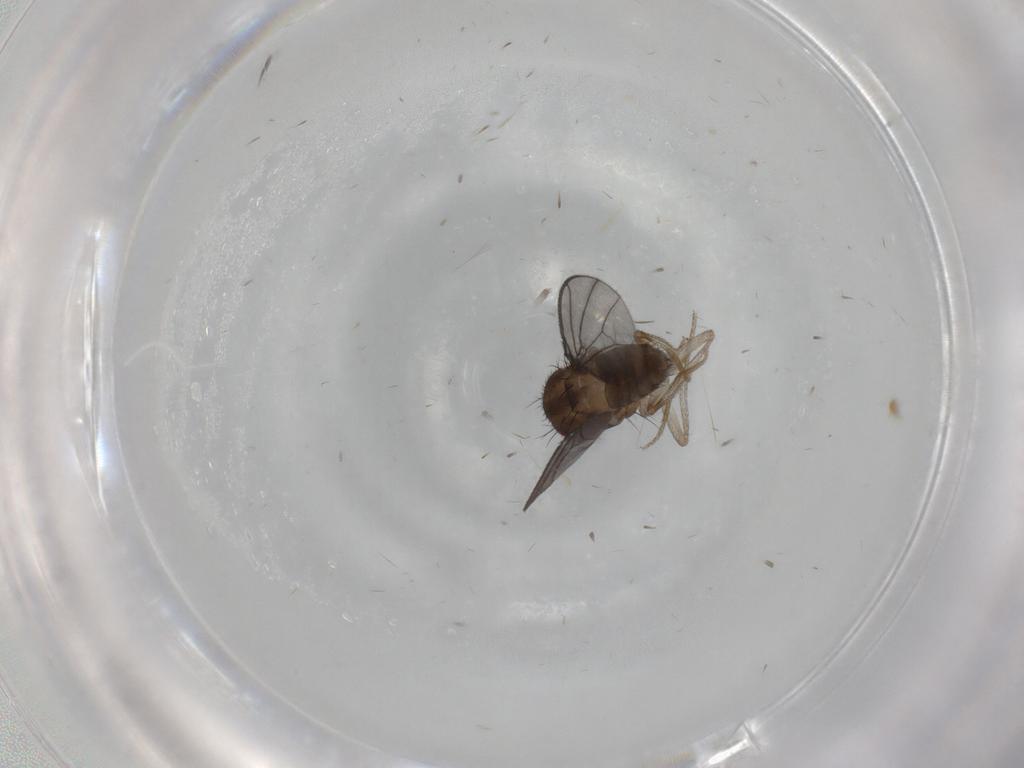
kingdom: Animalia
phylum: Arthropoda
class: Insecta
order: Diptera
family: Drosophilidae
